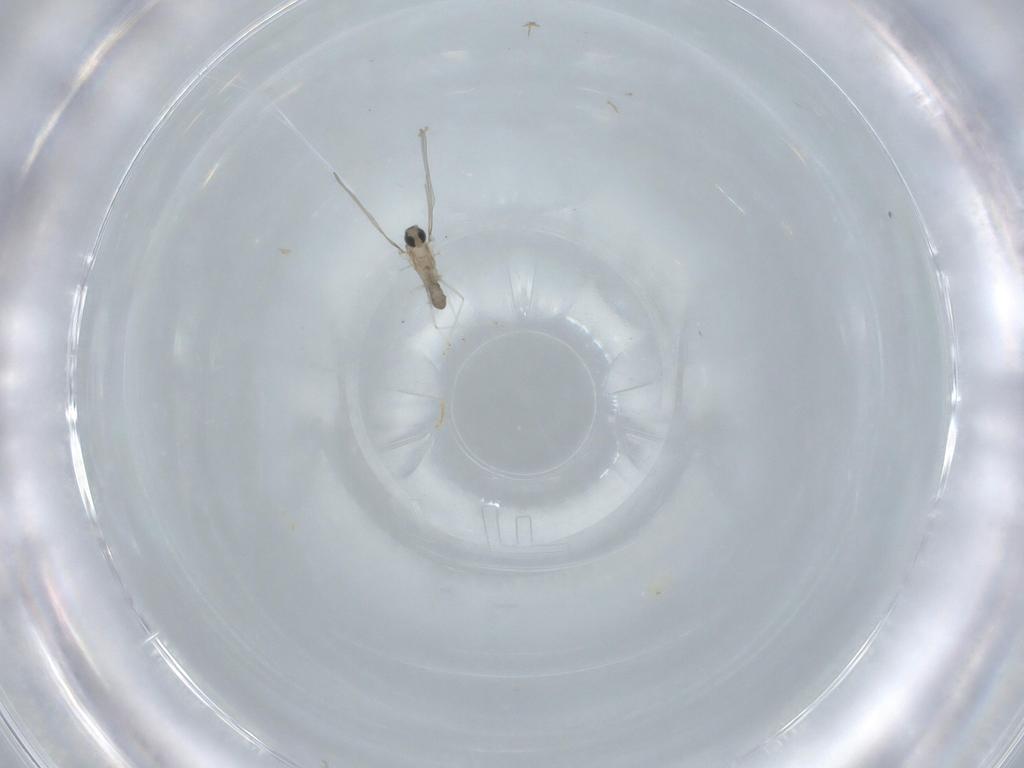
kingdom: Animalia
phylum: Arthropoda
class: Insecta
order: Diptera
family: Cecidomyiidae
